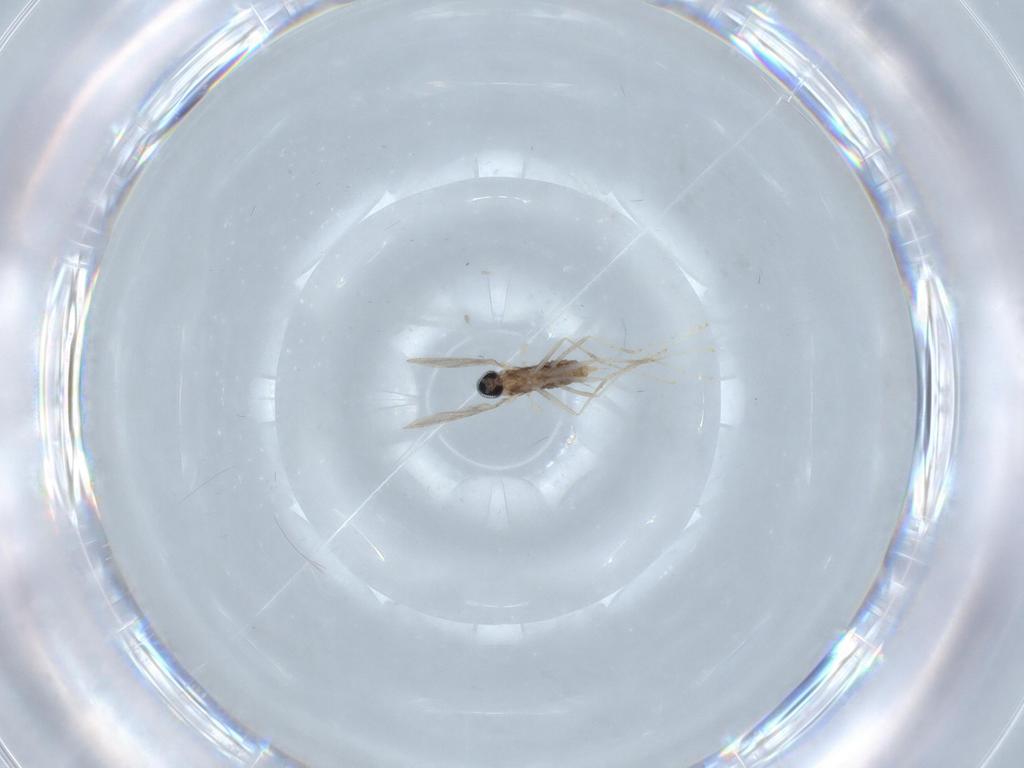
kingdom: Animalia
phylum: Arthropoda
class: Insecta
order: Diptera
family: Cecidomyiidae
